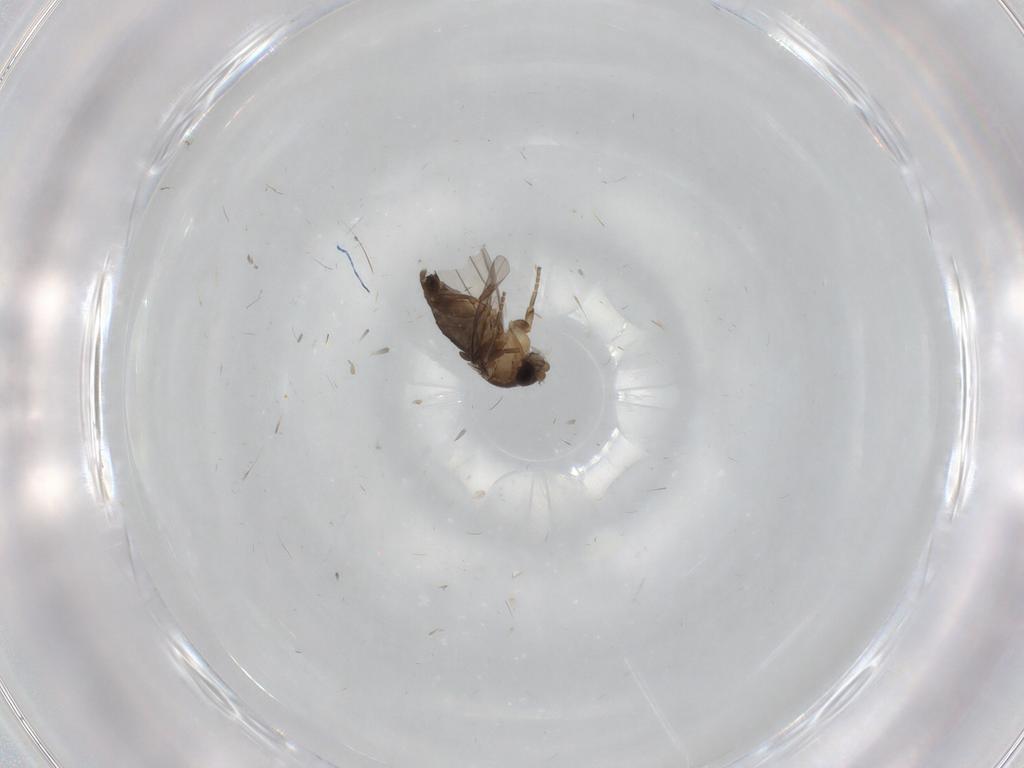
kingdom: Animalia
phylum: Arthropoda
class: Insecta
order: Diptera
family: Phoridae
